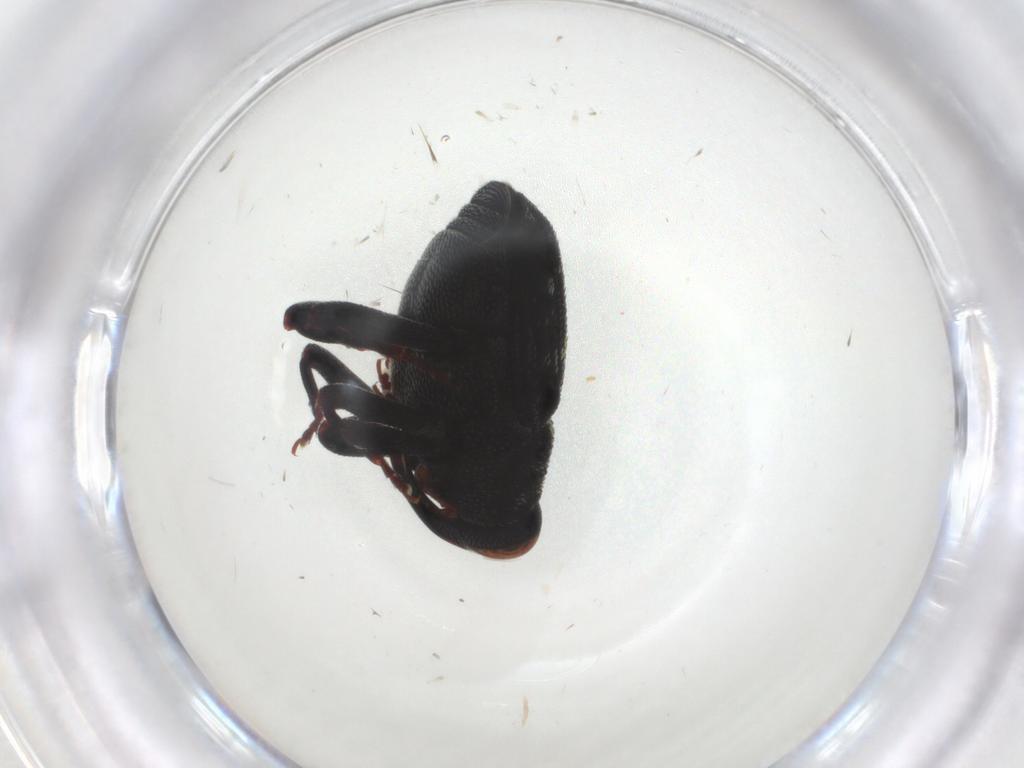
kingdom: Animalia
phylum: Arthropoda
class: Insecta
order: Coleoptera
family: Curculionidae
